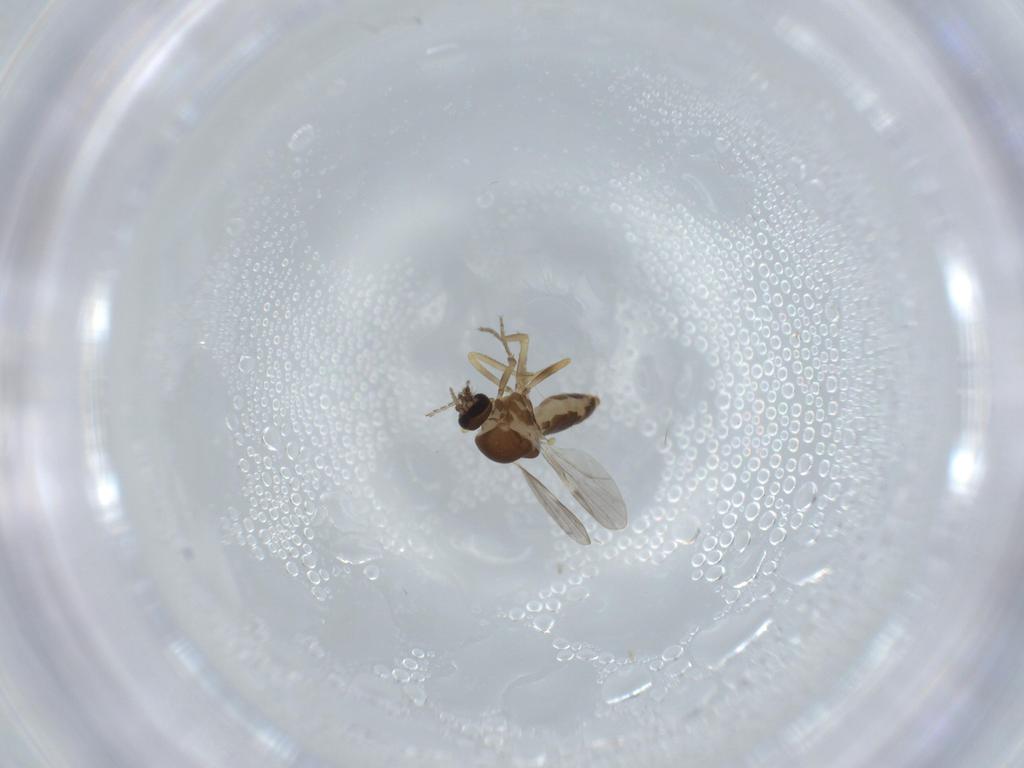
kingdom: Animalia
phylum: Arthropoda
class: Insecta
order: Diptera
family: Ceratopogonidae
